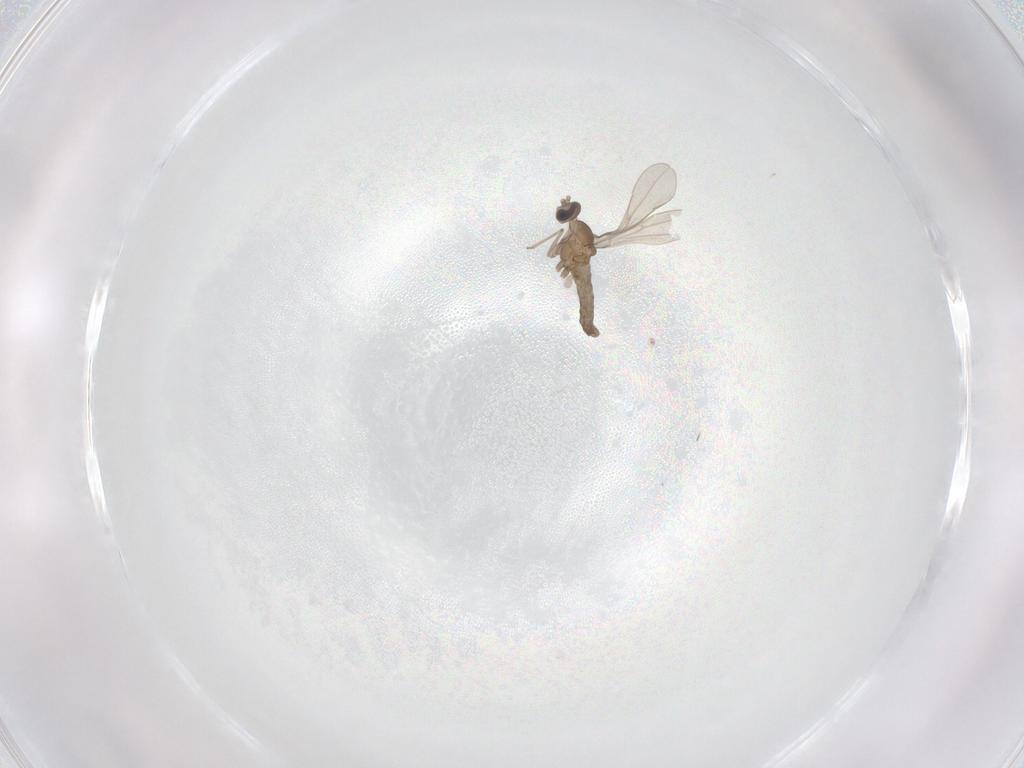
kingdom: Animalia
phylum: Arthropoda
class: Insecta
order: Diptera
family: Cecidomyiidae
